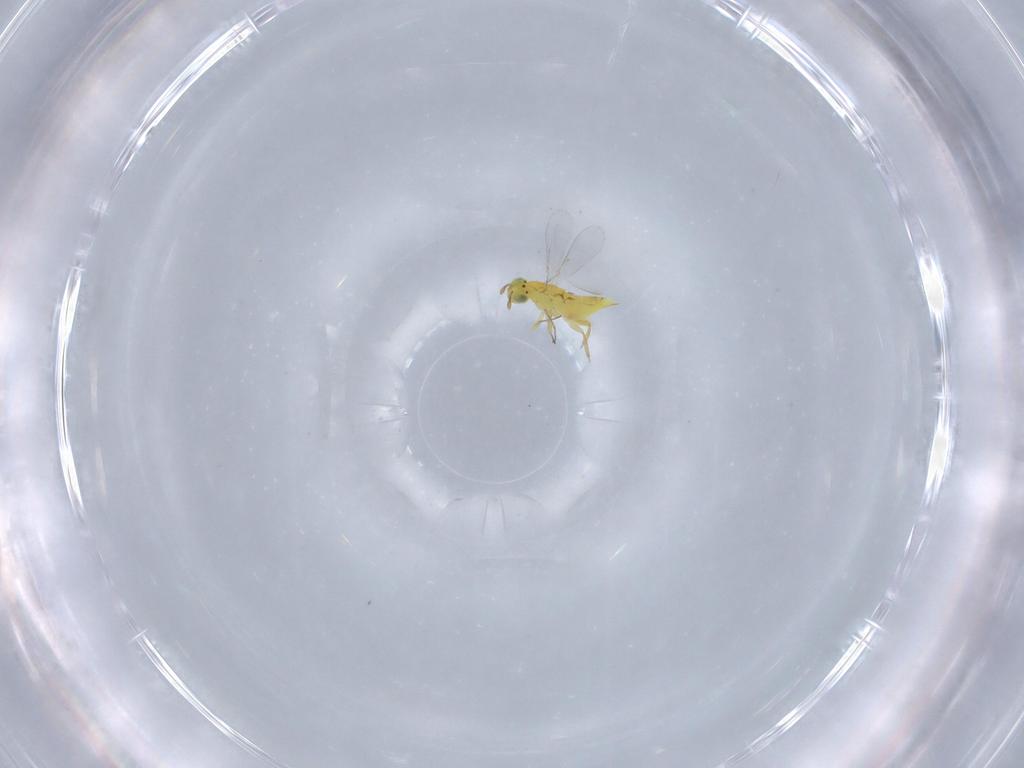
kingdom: Animalia
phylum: Arthropoda
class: Insecta
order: Hymenoptera
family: Aphelinidae
